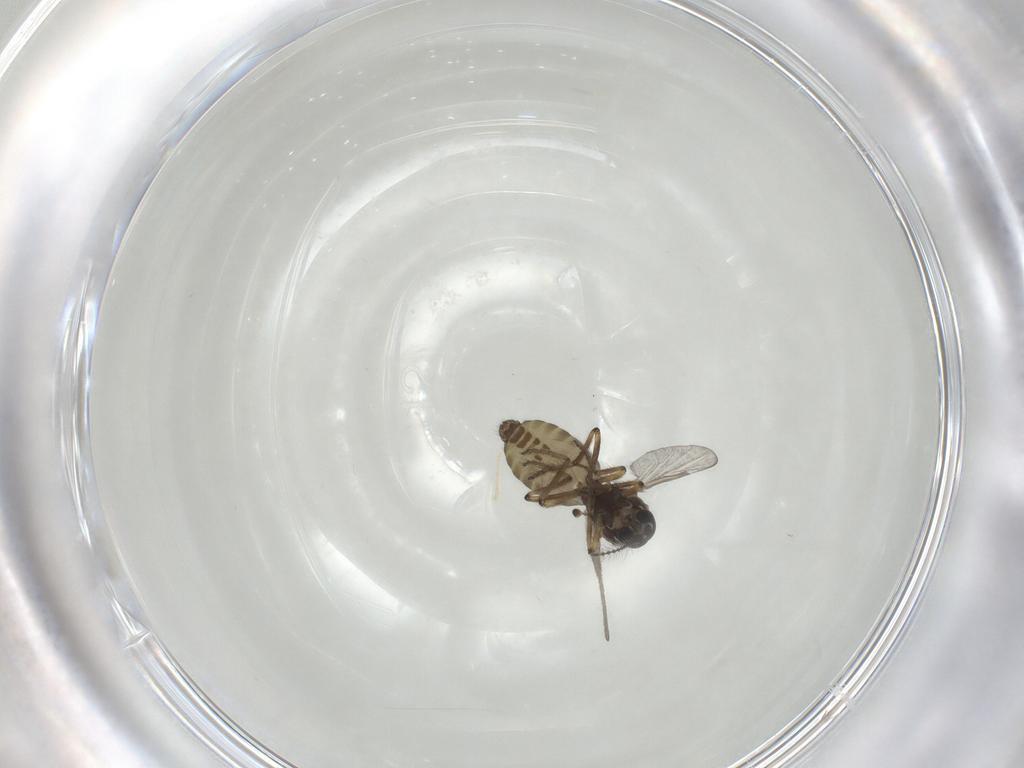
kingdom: Animalia
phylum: Arthropoda
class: Insecta
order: Diptera
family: Ceratopogonidae
